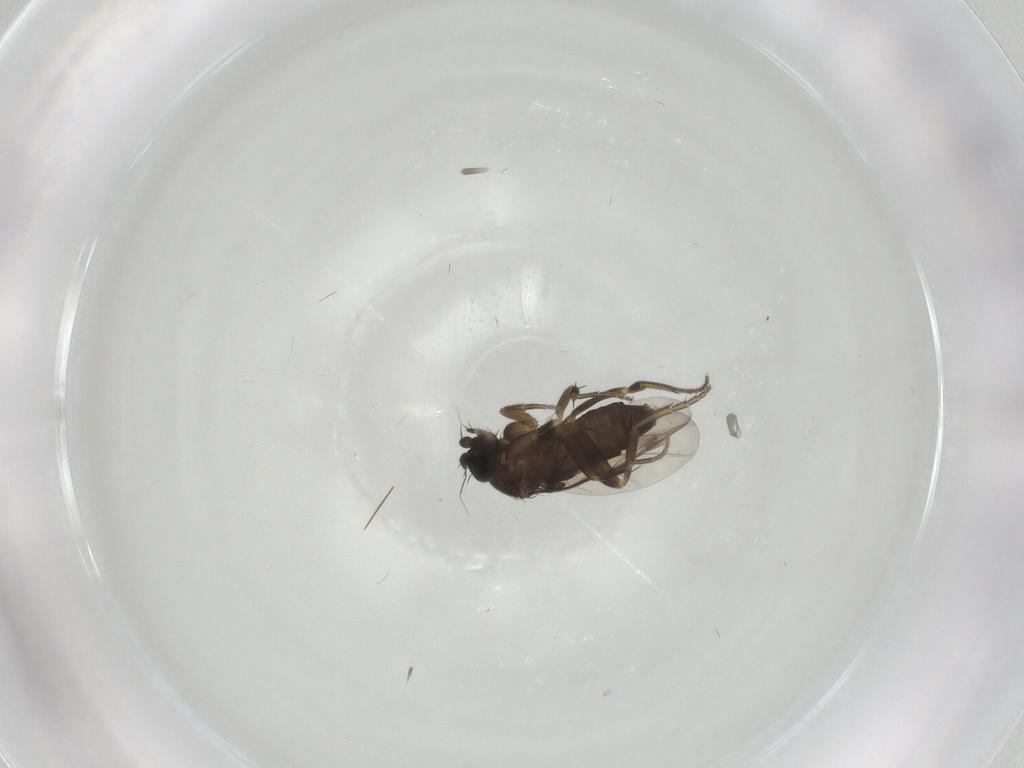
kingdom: Animalia
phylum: Arthropoda
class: Insecta
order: Diptera
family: Phoridae
